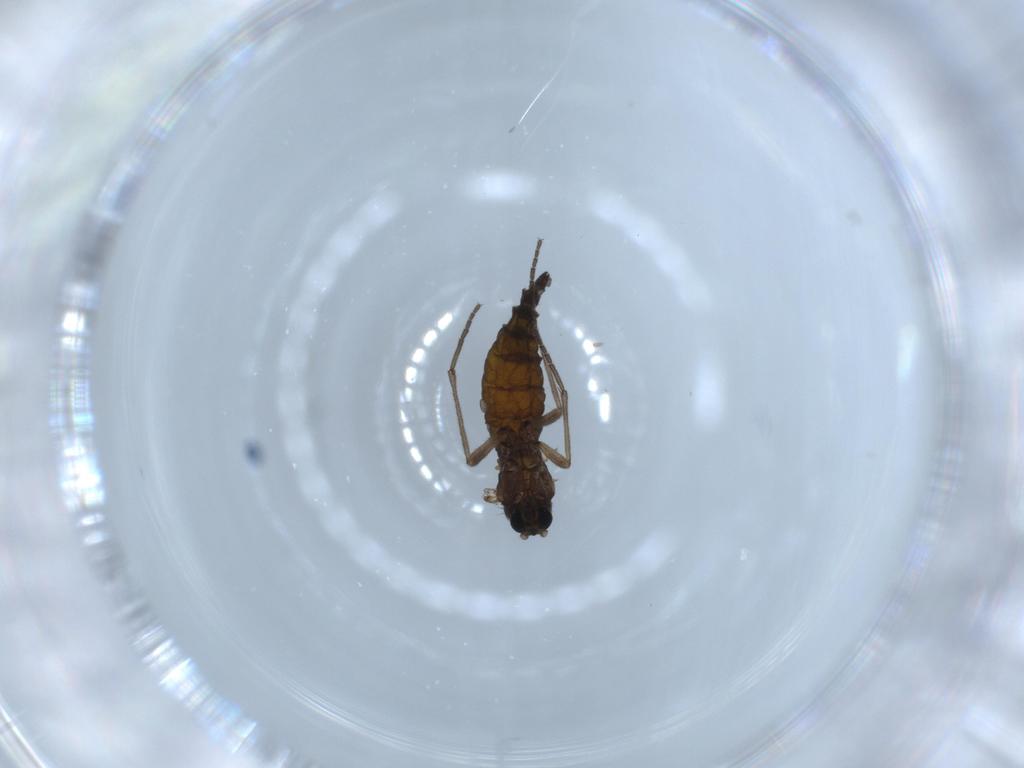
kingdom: Animalia
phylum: Arthropoda
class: Insecta
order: Diptera
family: Sciaridae
